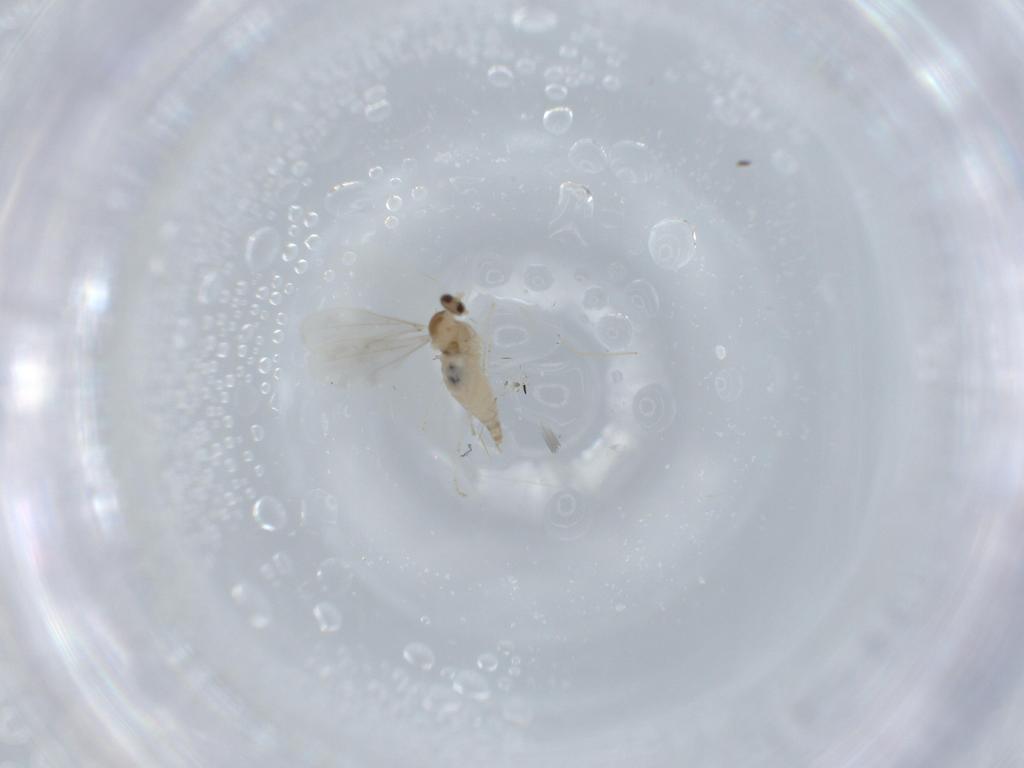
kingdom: Animalia
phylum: Arthropoda
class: Insecta
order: Diptera
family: Cecidomyiidae
